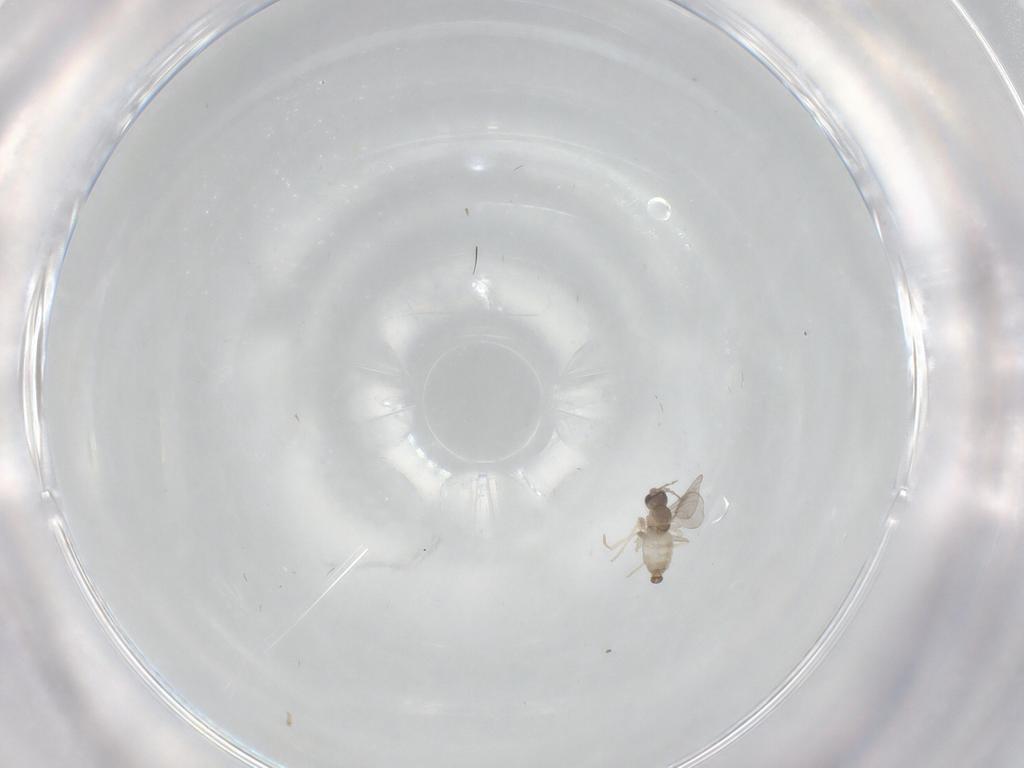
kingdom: Animalia
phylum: Arthropoda
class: Insecta
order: Diptera
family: Cecidomyiidae
